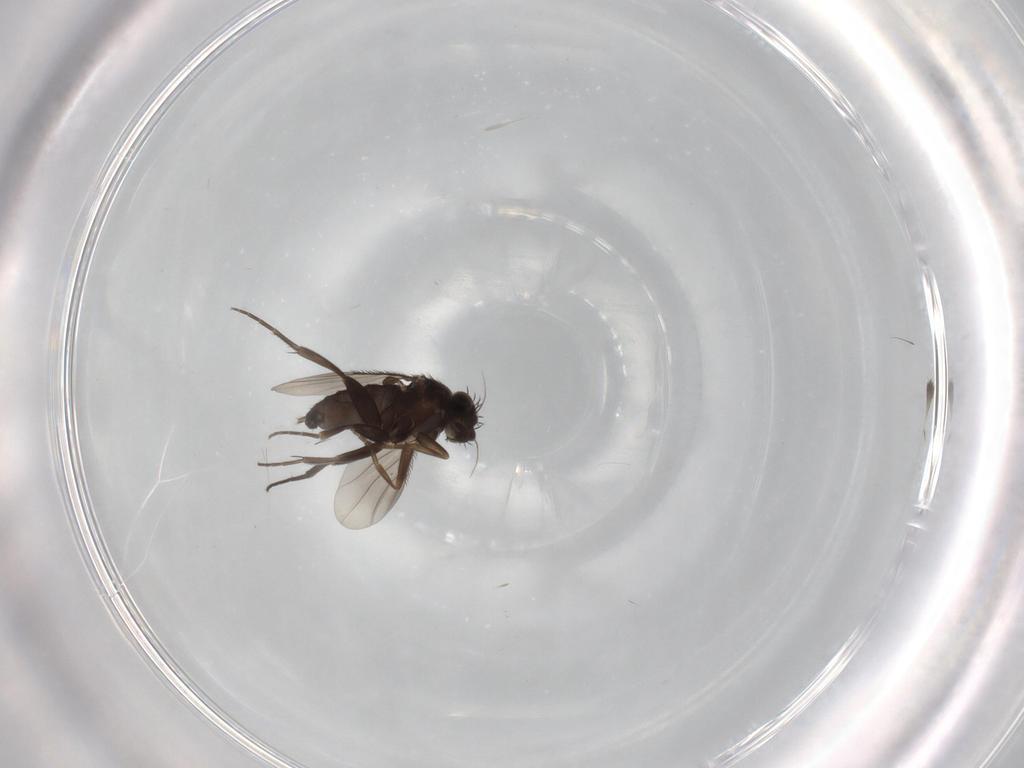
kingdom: Animalia
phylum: Arthropoda
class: Insecta
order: Diptera
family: Phoridae
